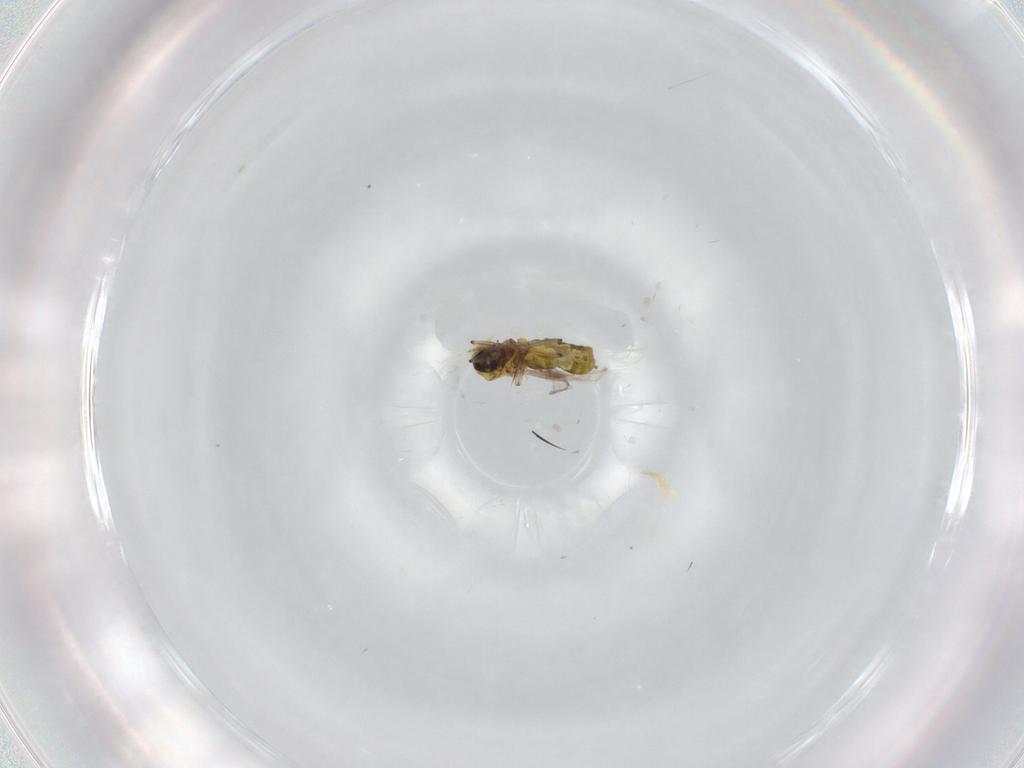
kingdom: Animalia
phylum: Arthropoda
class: Insecta
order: Diptera
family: Ceratopogonidae
